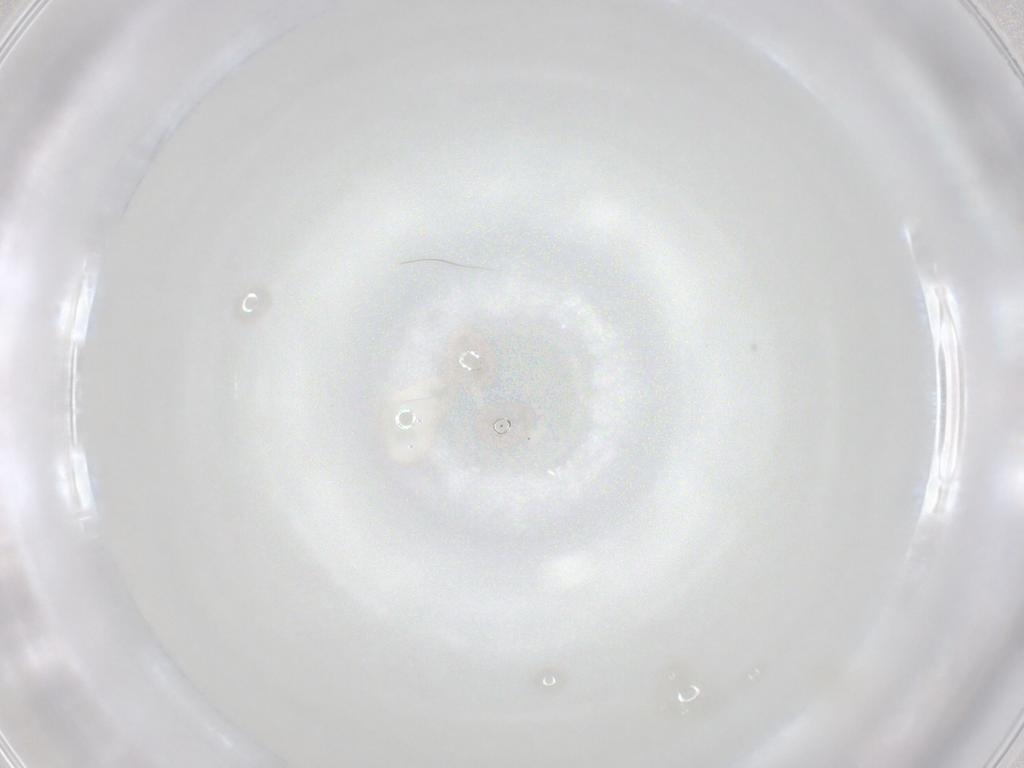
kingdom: Animalia
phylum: Arthropoda
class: Arachnida
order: Mesostigmata
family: Phytoseiidae
